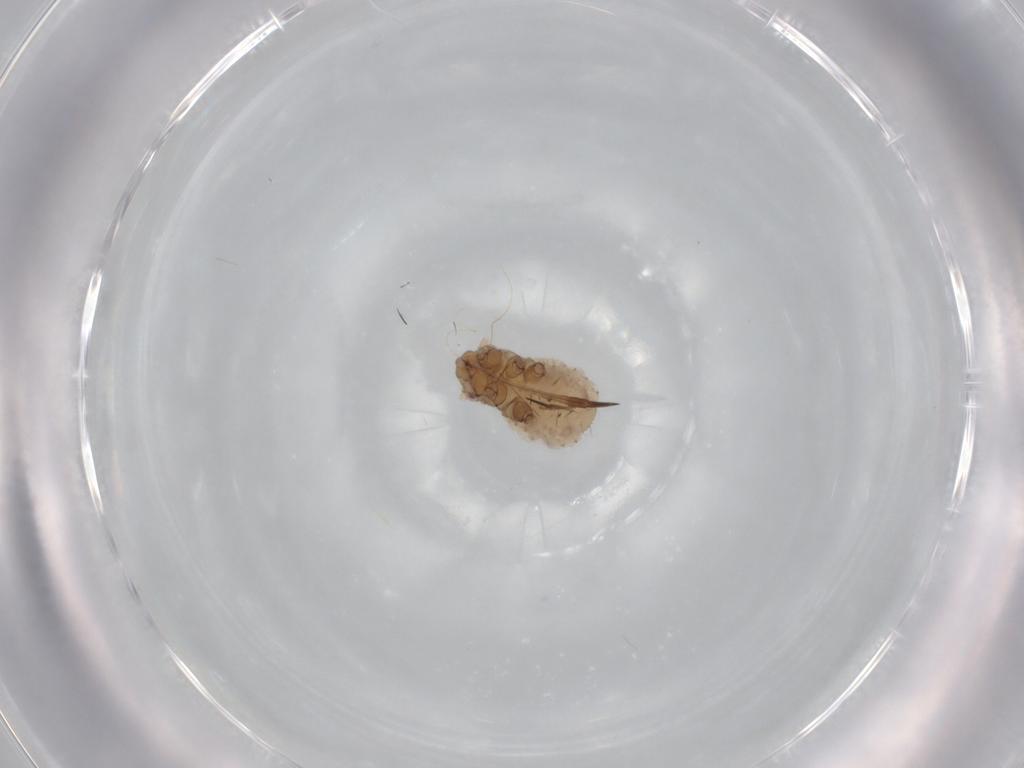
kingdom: Animalia
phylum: Arthropoda
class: Insecta
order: Hemiptera
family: Aphididae
